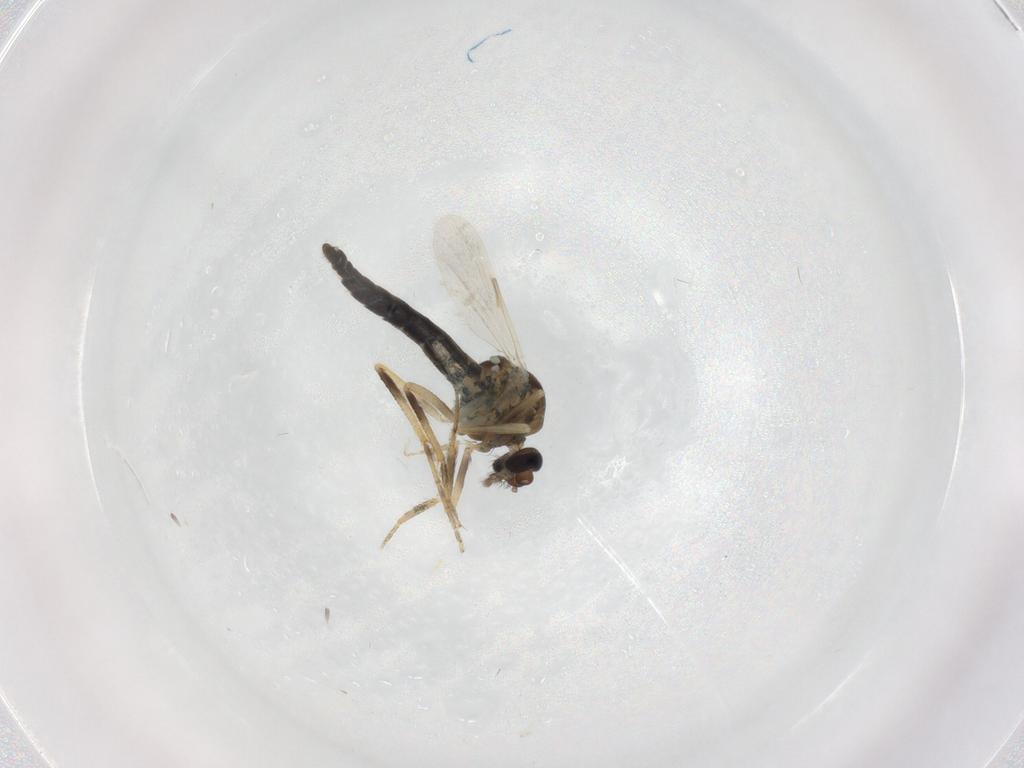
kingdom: Animalia
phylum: Arthropoda
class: Insecta
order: Diptera
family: Cecidomyiidae
